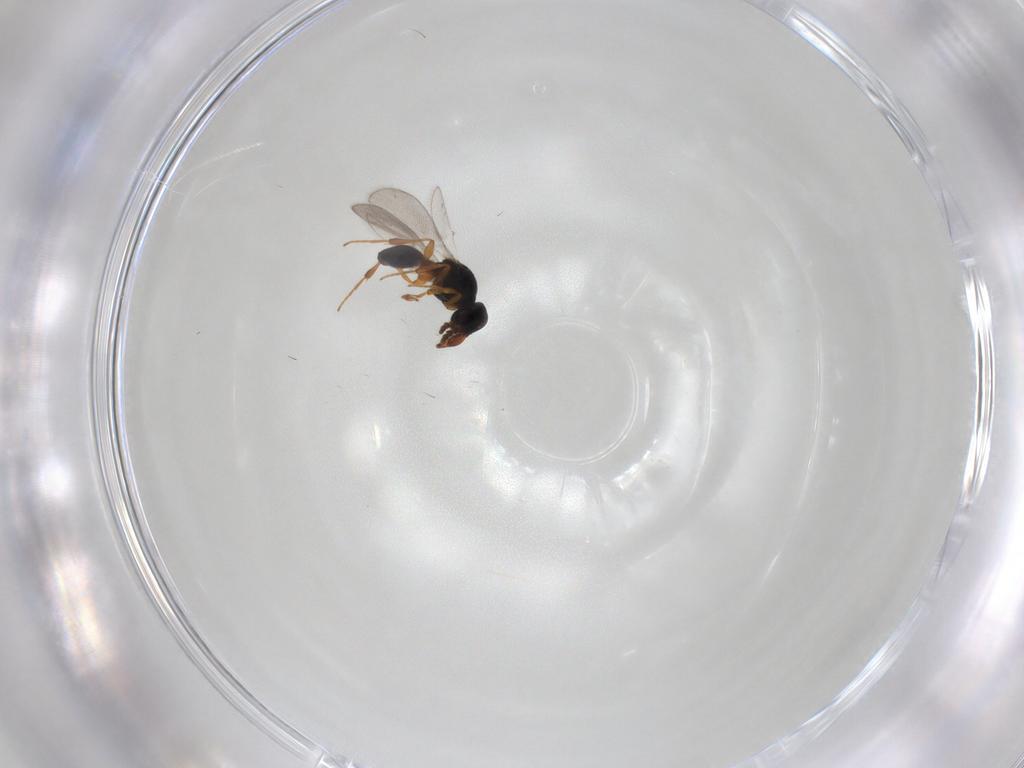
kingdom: Animalia
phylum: Arthropoda
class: Insecta
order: Hymenoptera
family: Platygastridae
